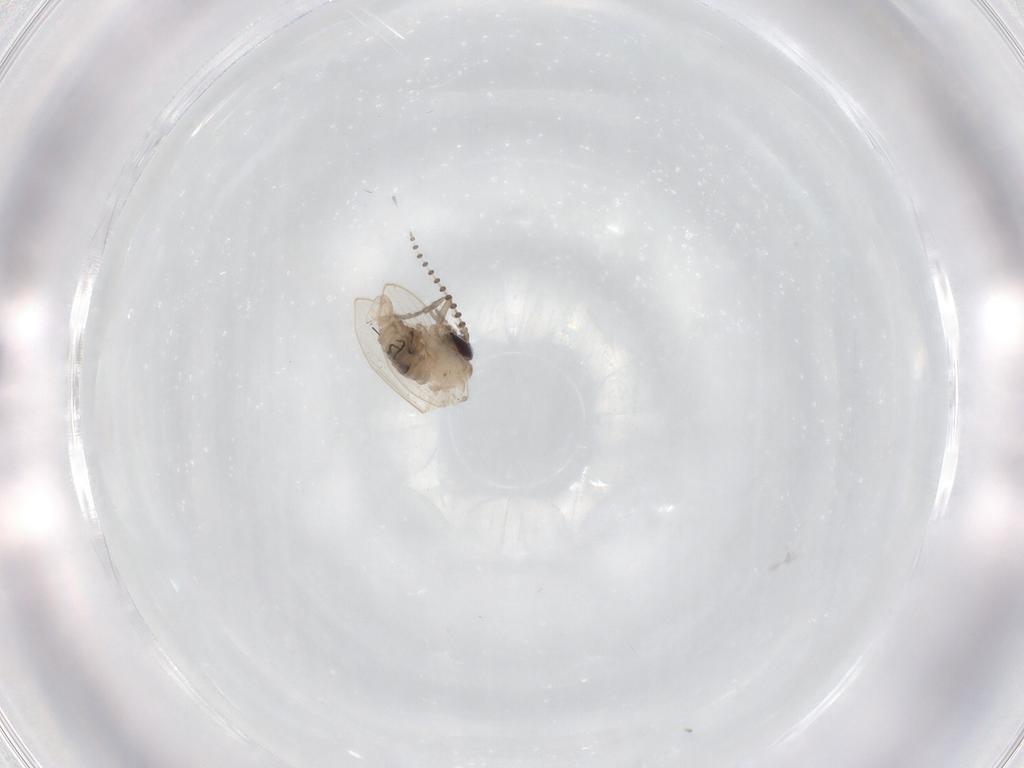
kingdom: Animalia
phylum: Arthropoda
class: Insecta
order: Diptera
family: Psychodidae
